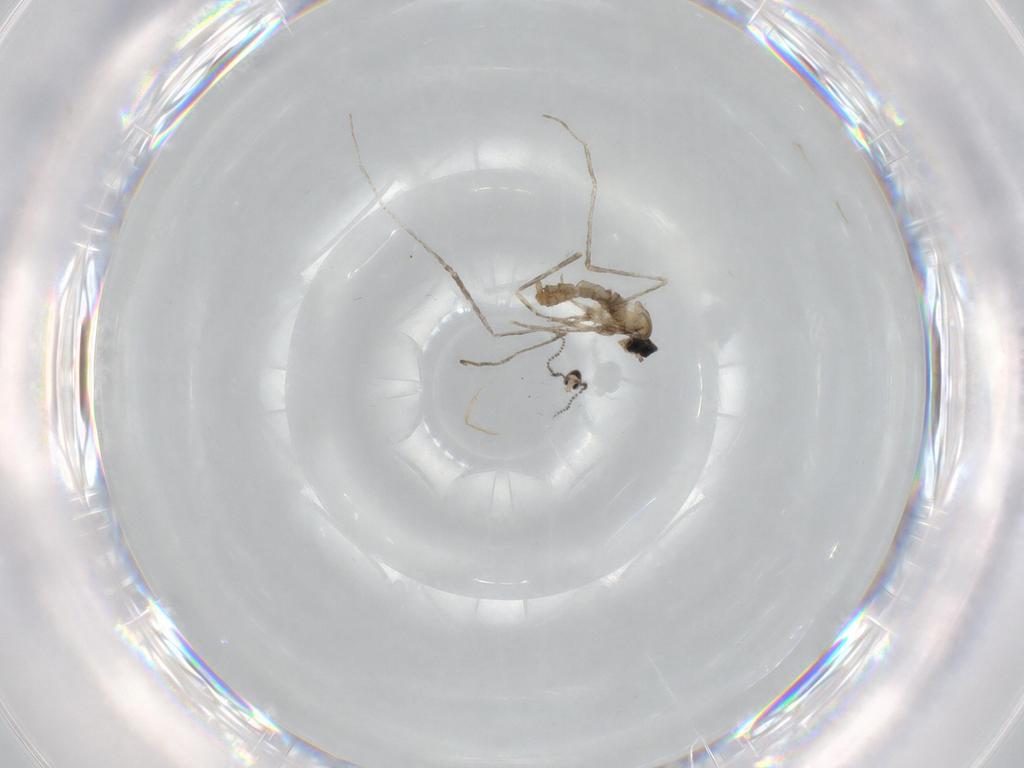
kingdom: Animalia
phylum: Arthropoda
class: Insecta
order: Diptera
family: Cecidomyiidae
